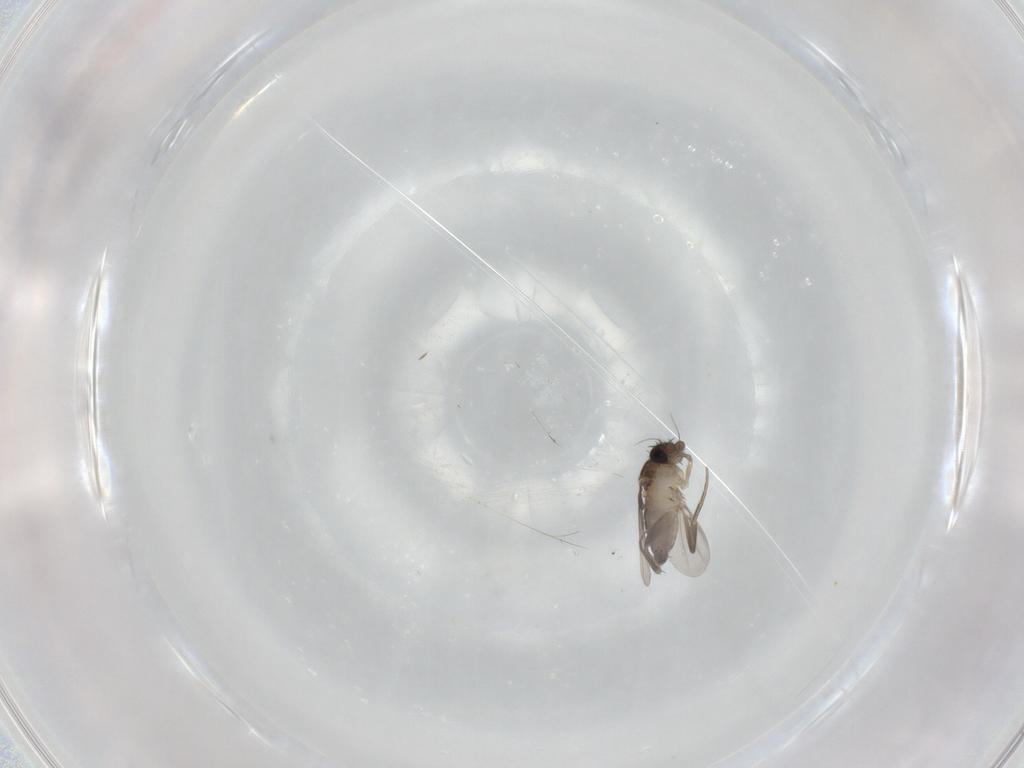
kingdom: Animalia
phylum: Arthropoda
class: Insecta
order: Diptera
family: Phoridae
